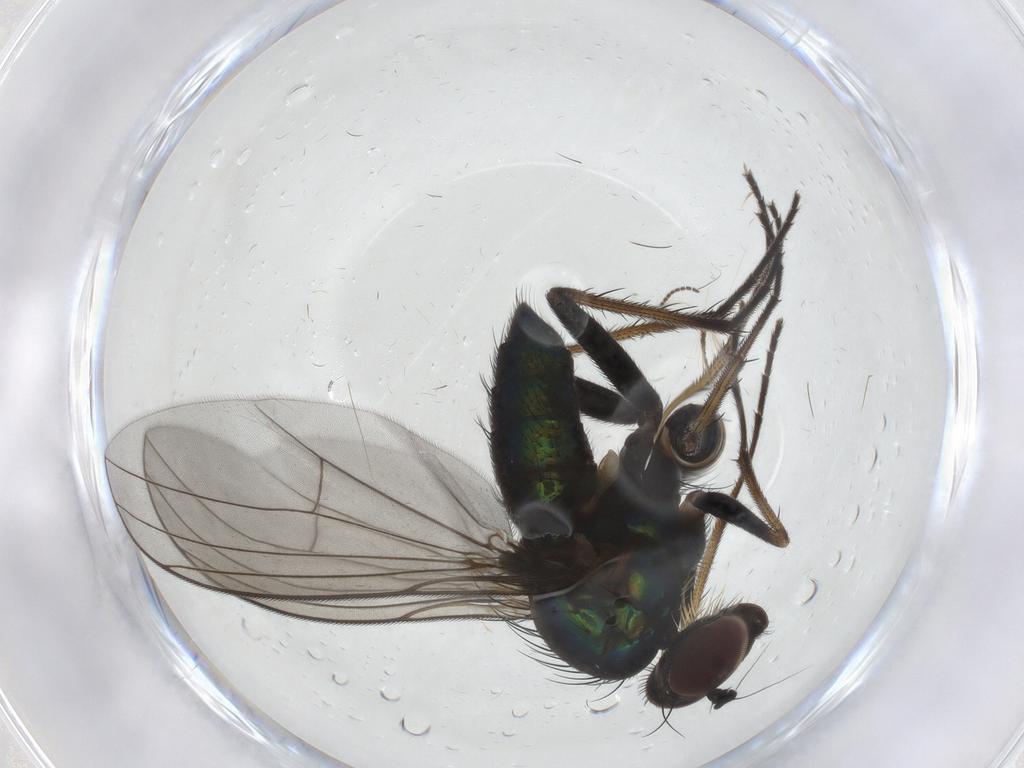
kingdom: Animalia
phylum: Arthropoda
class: Insecta
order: Diptera
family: Dolichopodidae
